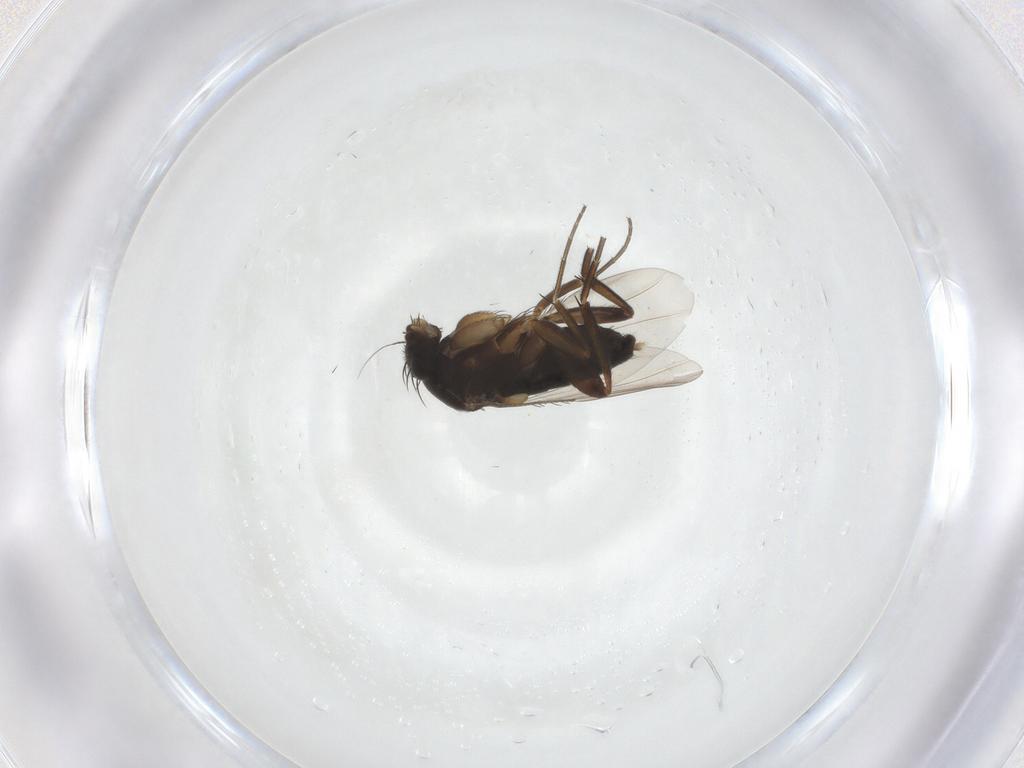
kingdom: Animalia
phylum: Arthropoda
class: Insecta
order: Diptera
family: Phoridae
